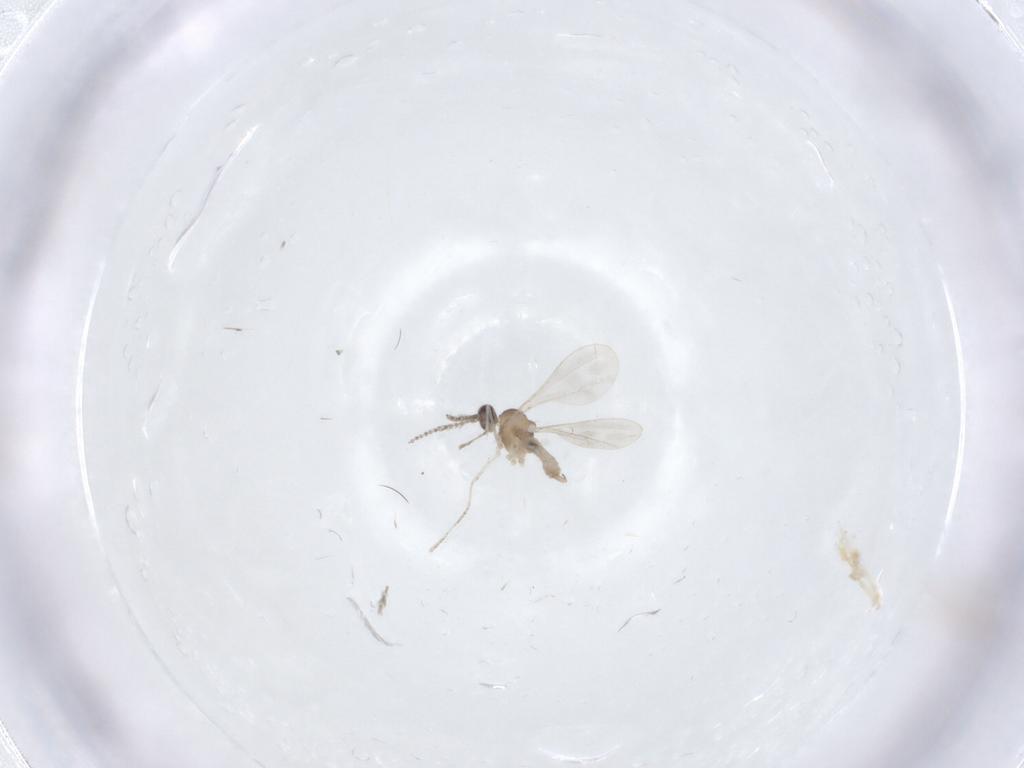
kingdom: Animalia
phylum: Arthropoda
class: Insecta
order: Diptera
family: Cecidomyiidae
